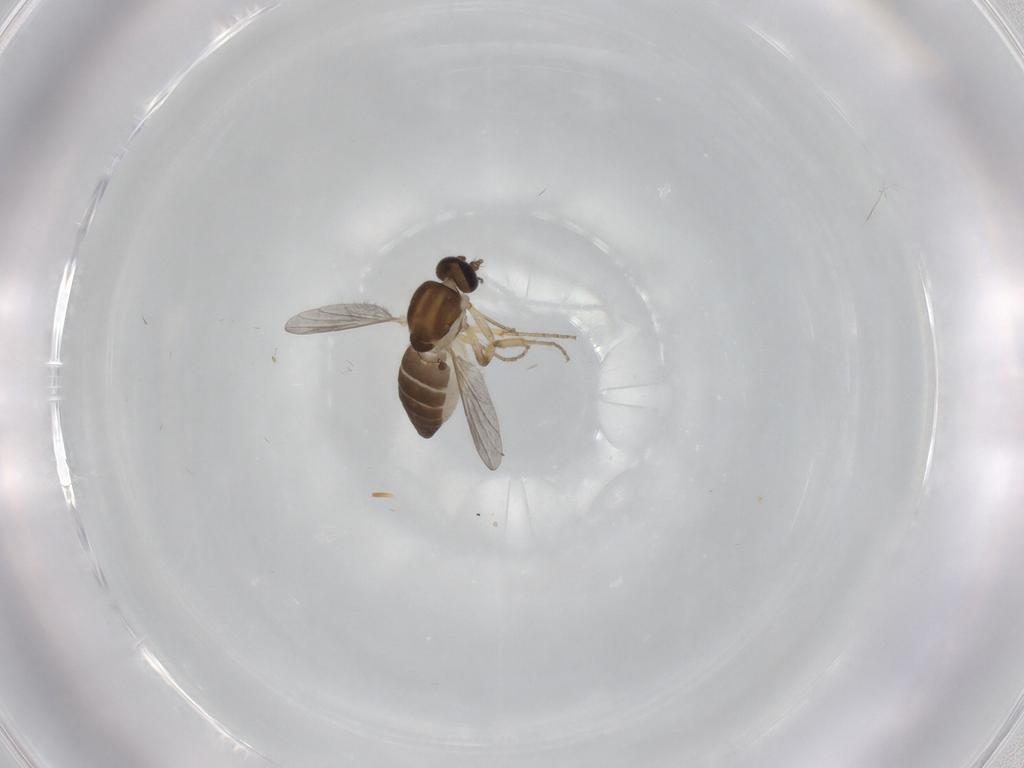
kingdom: Animalia
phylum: Arthropoda
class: Insecta
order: Diptera
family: Ceratopogonidae
